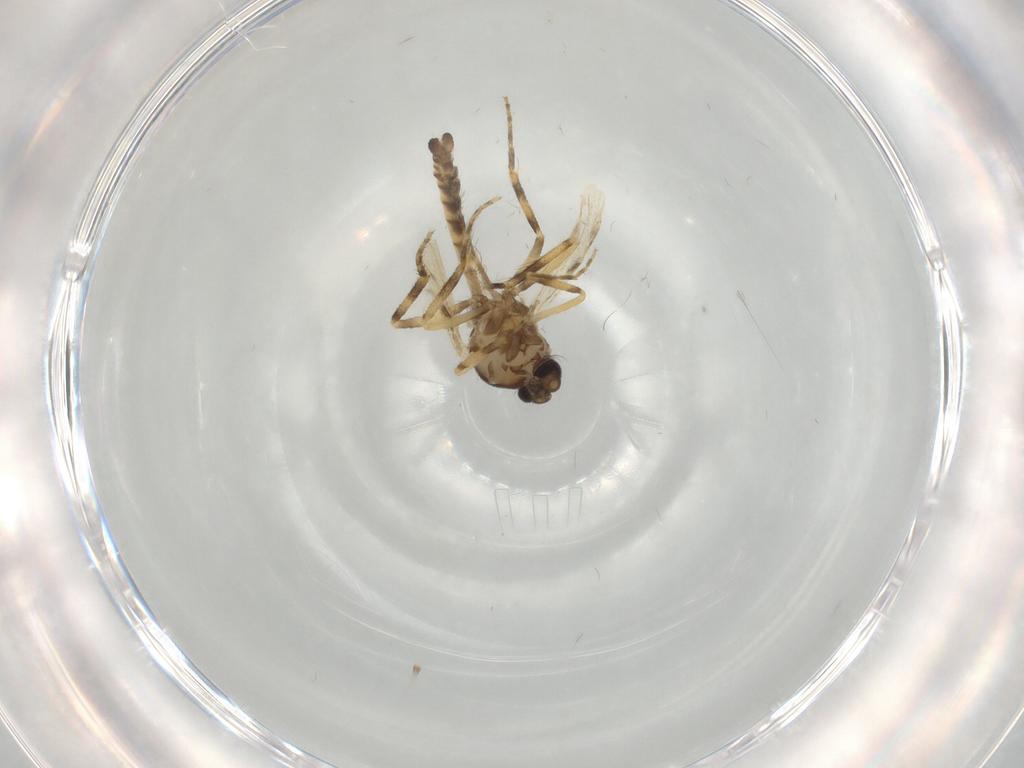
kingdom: Animalia
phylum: Arthropoda
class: Insecta
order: Diptera
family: Ceratopogonidae
